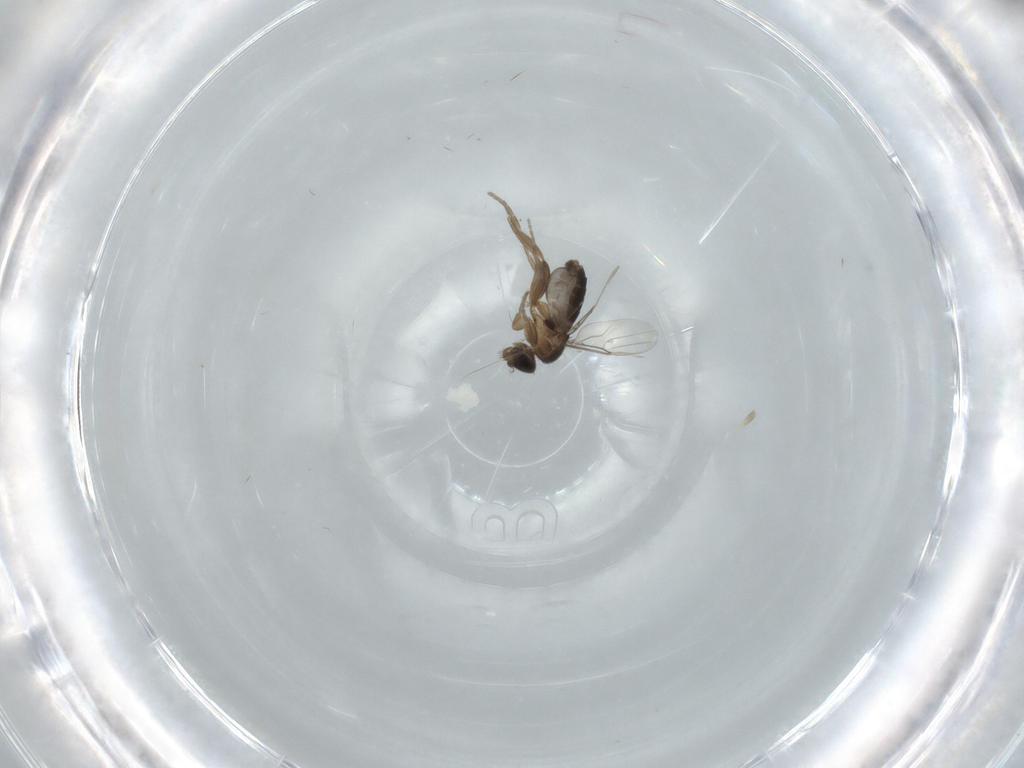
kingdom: Animalia
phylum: Arthropoda
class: Insecta
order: Diptera
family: Phoridae
